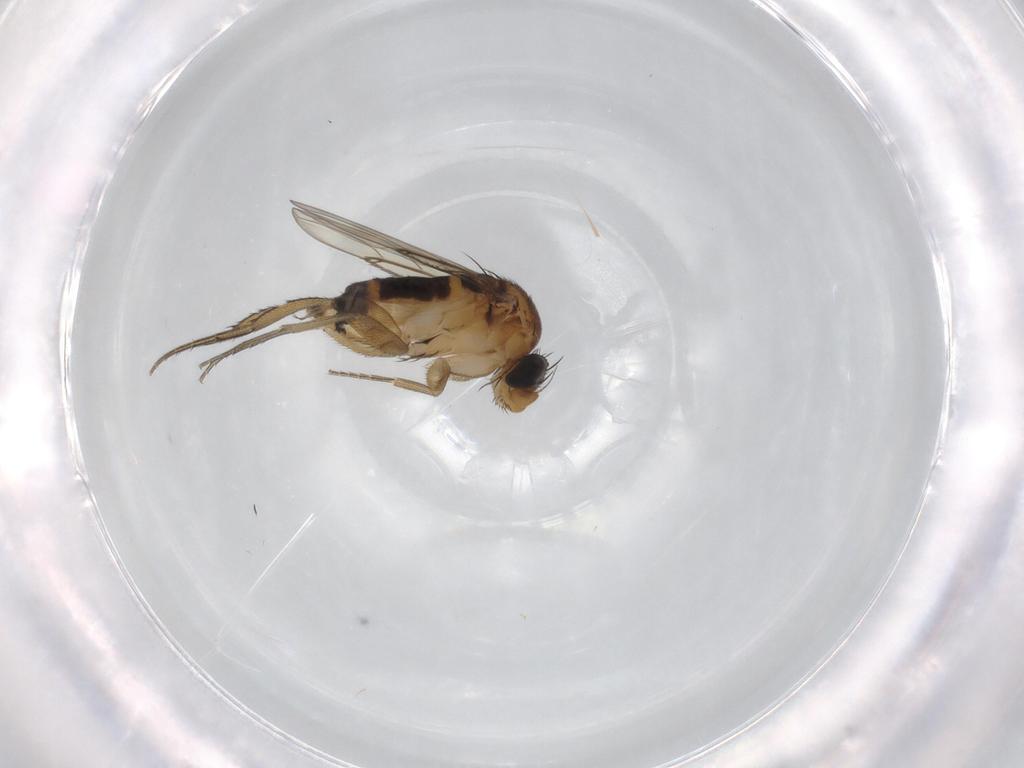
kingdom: Animalia
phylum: Arthropoda
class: Insecta
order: Diptera
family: Phoridae
